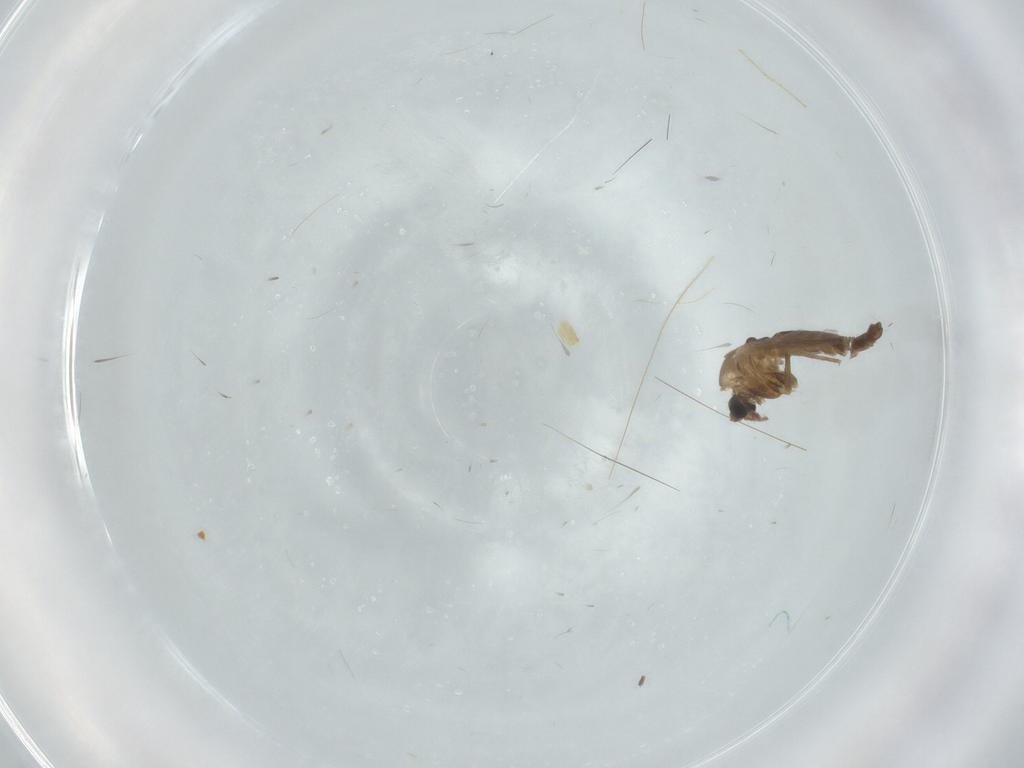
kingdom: Animalia
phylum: Arthropoda
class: Insecta
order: Diptera
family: Chironomidae
